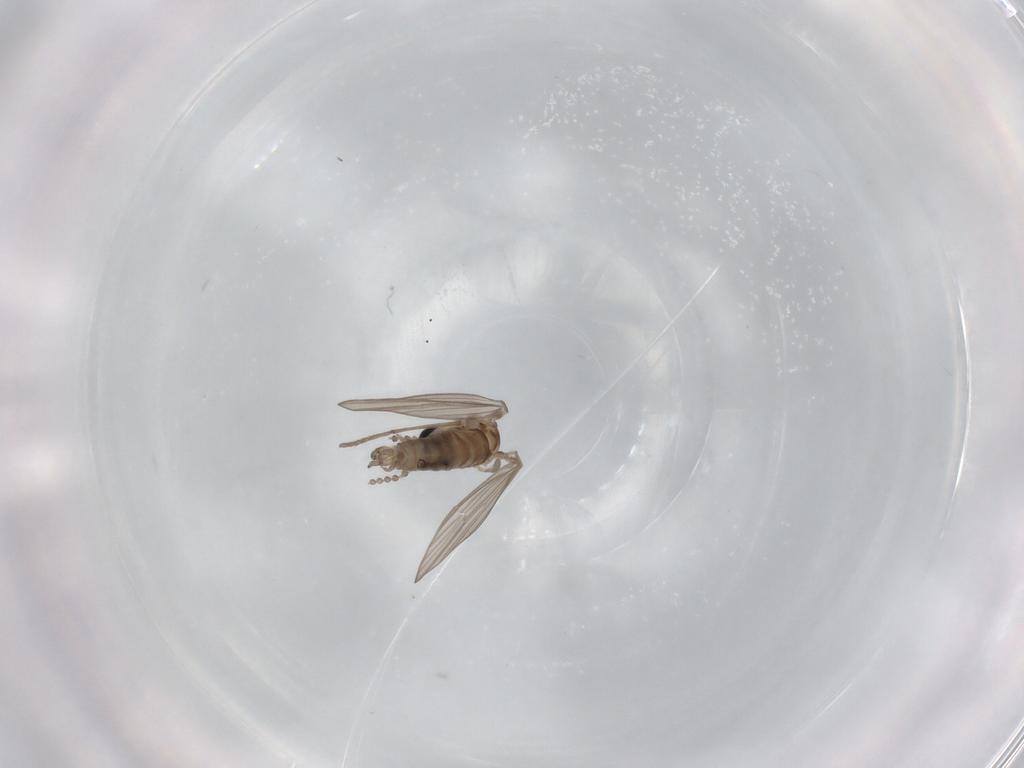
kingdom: Animalia
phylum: Arthropoda
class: Insecta
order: Diptera
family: Psychodidae
